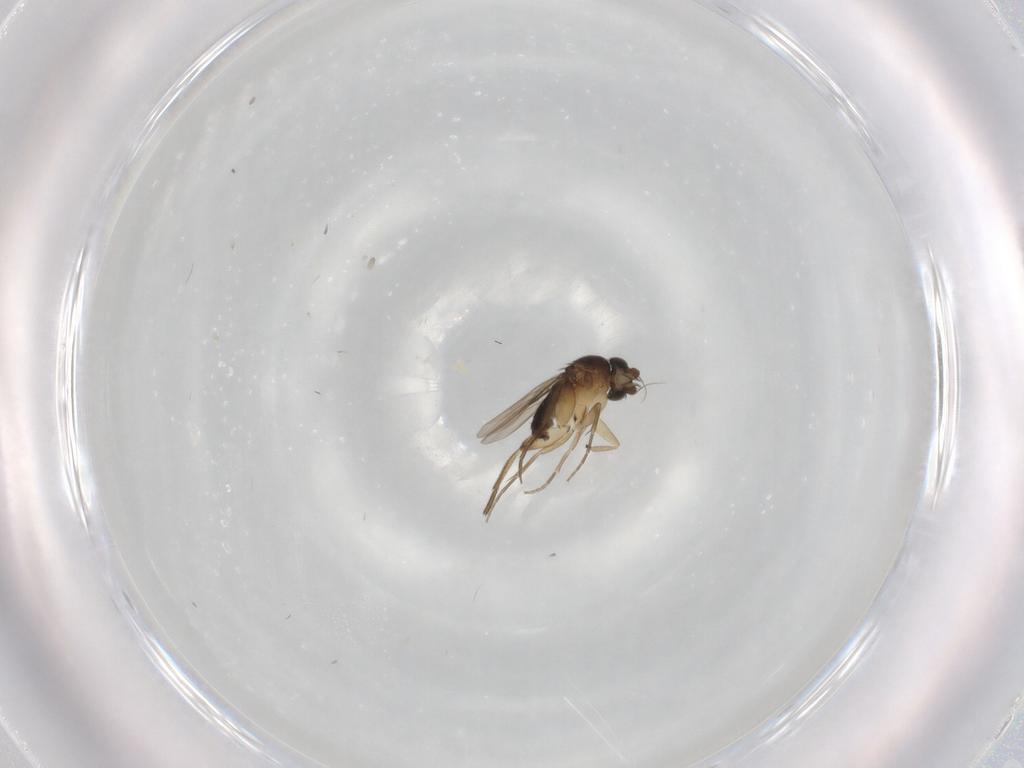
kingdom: Animalia
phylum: Arthropoda
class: Insecta
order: Diptera
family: Phoridae
